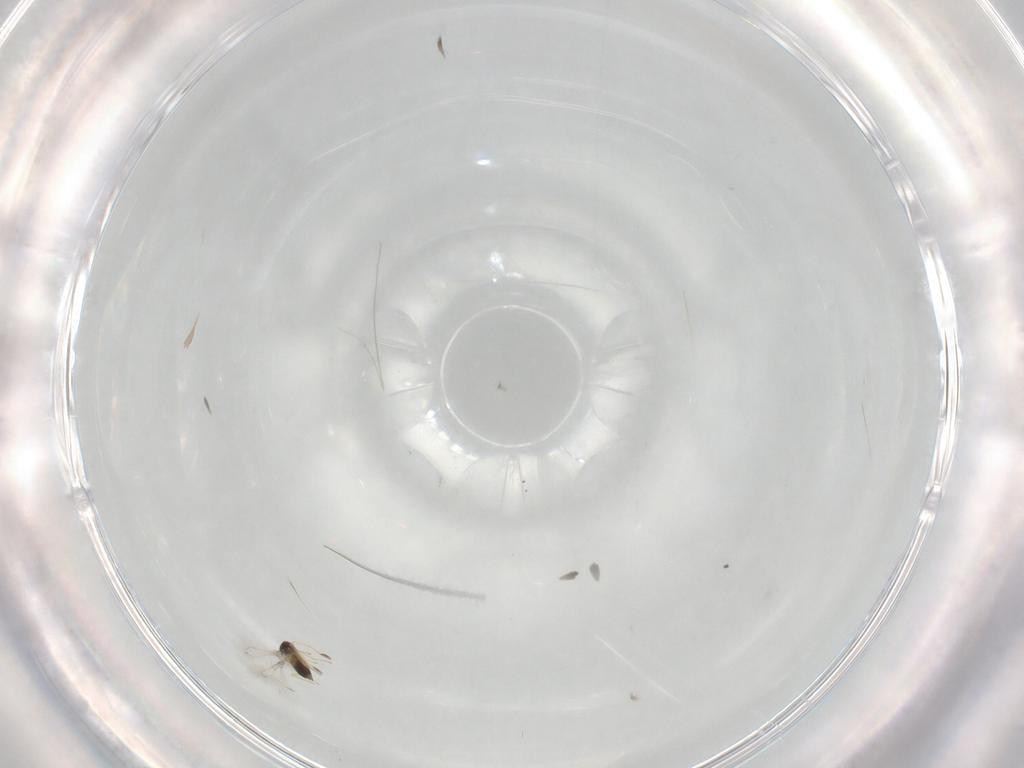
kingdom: Animalia
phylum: Arthropoda
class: Insecta
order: Hymenoptera
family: Mymaridae
